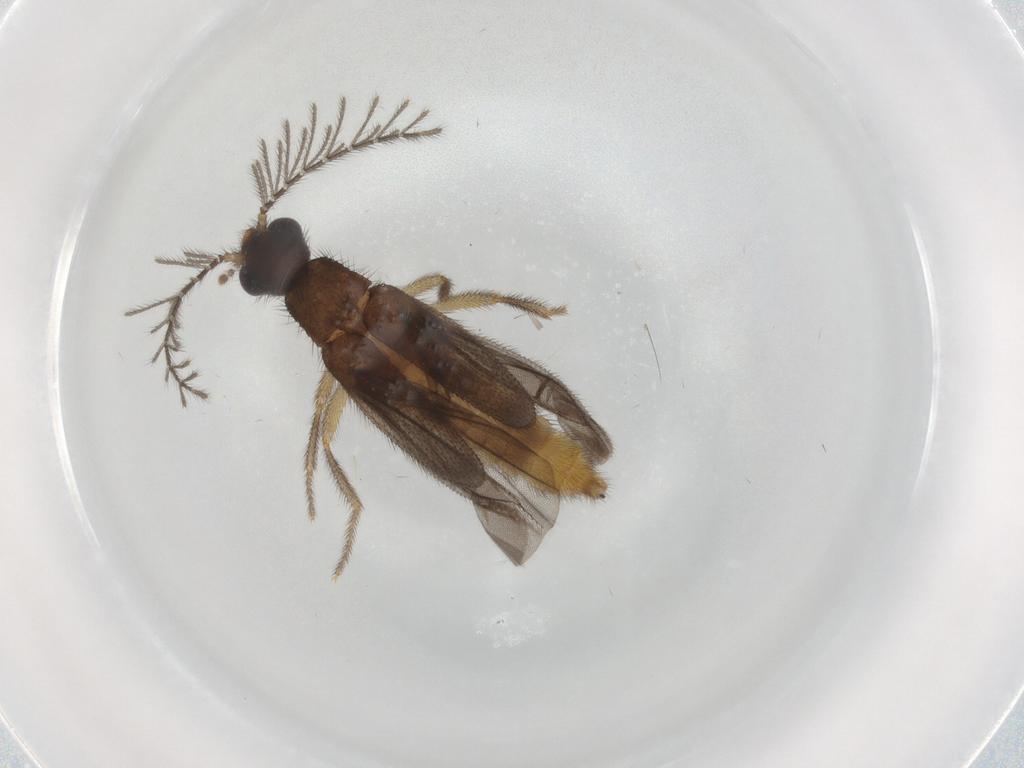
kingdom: Animalia
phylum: Arthropoda
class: Insecta
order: Coleoptera
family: Phengodidae
